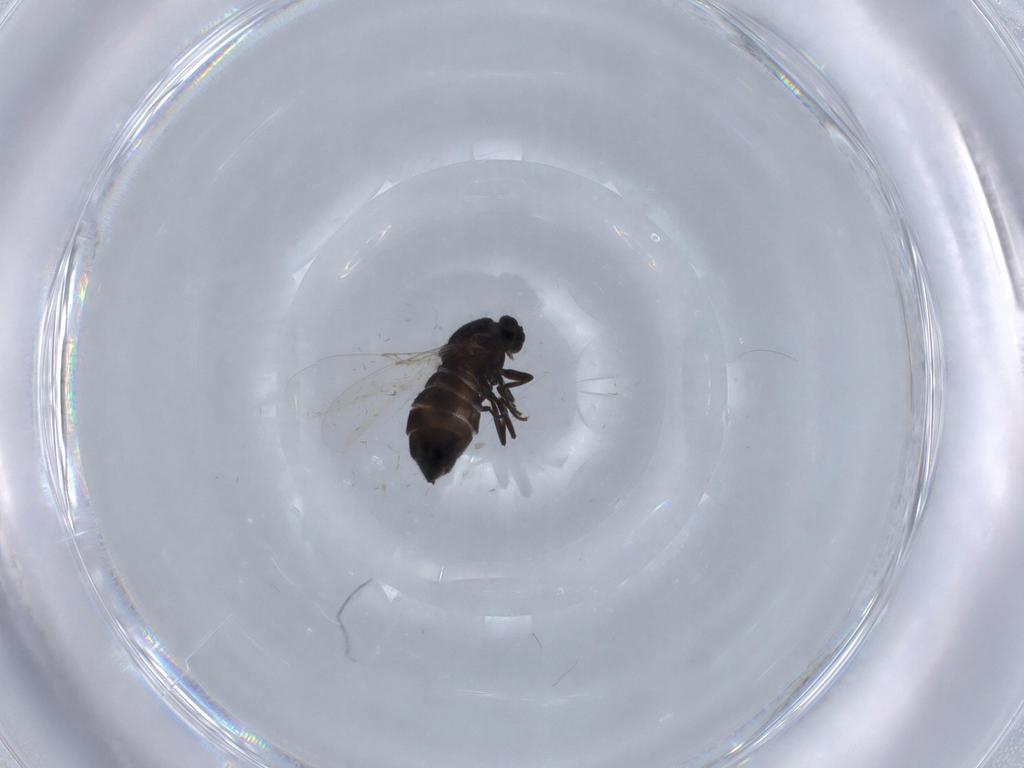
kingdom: Animalia
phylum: Arthropoda
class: Insecta
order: Diptera
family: Scatopsidae
